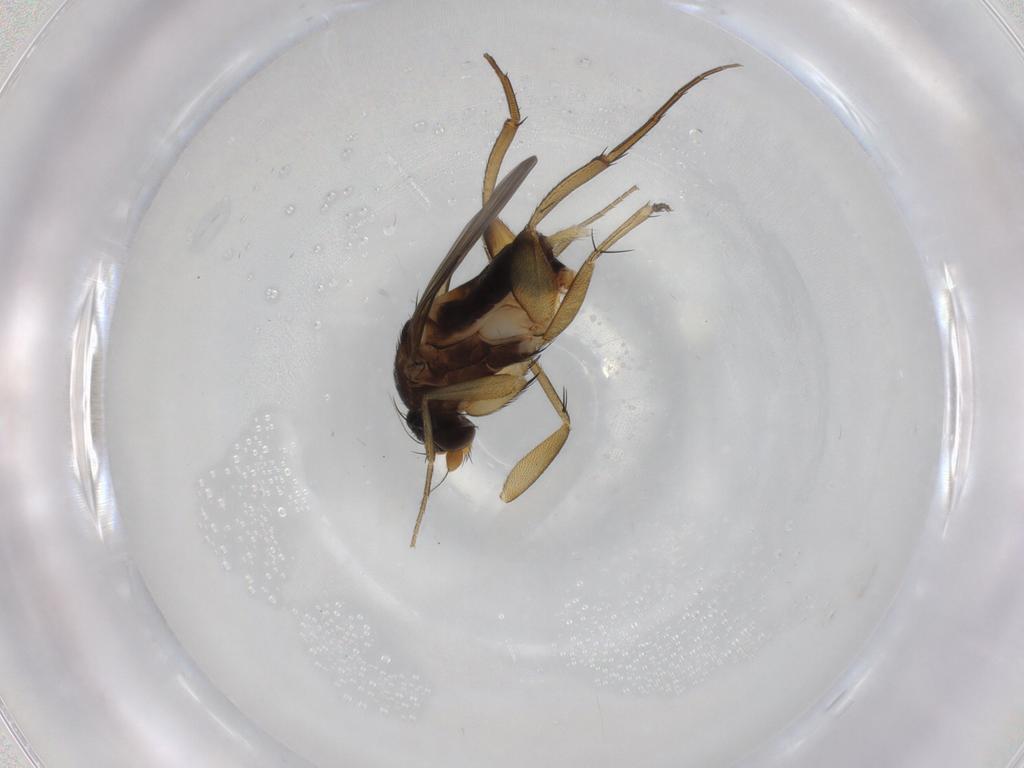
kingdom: Animalia
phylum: Arthropoda
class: Insecta
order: Diptera
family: Phoridae
